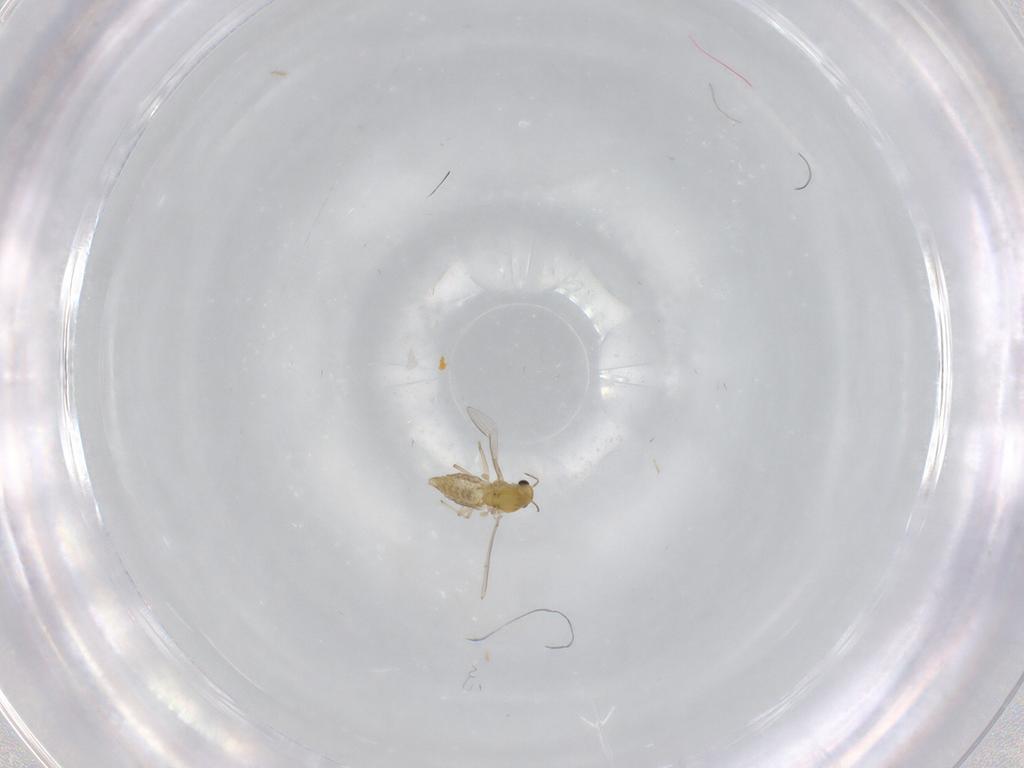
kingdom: Animalia
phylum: Arthropoda
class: Insecta
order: Diptera
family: Chironomidae
